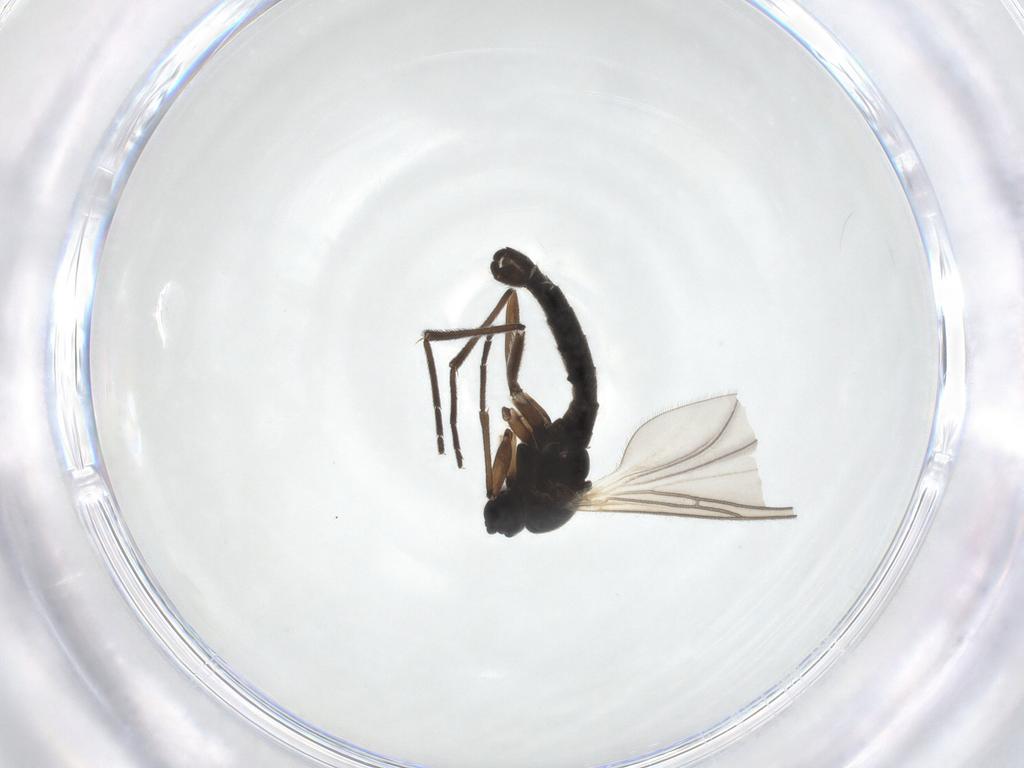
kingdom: Animalia
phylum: Arthropoda
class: Insecta
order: Diptera
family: Sciaridae
